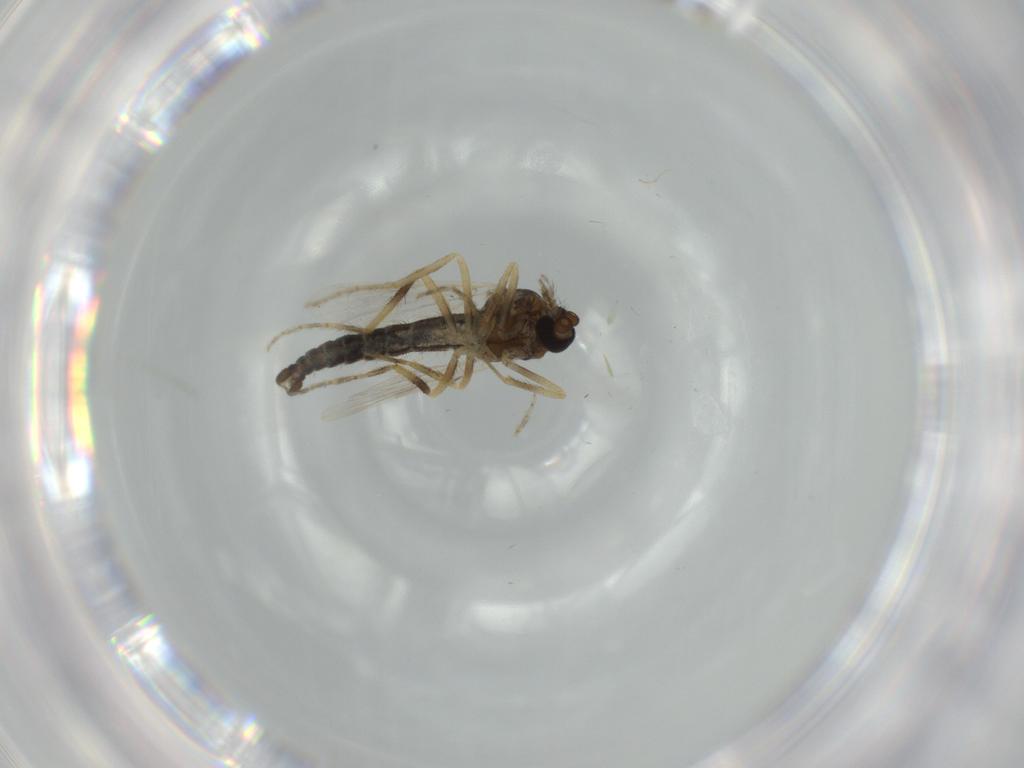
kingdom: Animalia
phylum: Arthropoda
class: Insecta
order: Diptera
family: Ceratopogonidae
